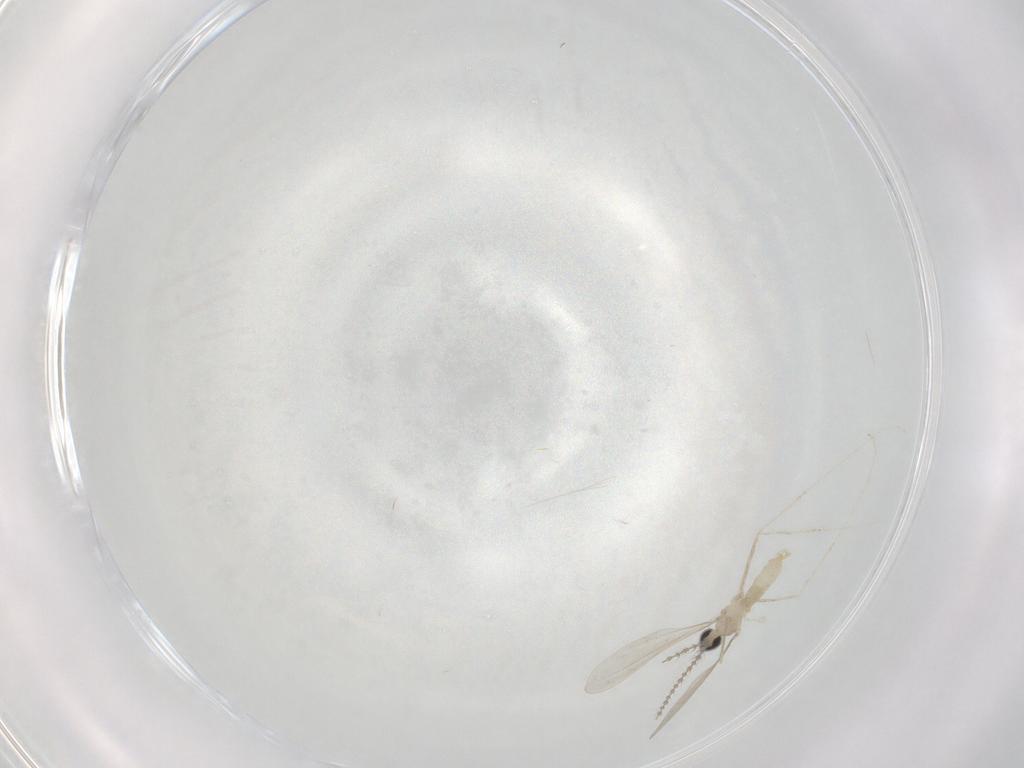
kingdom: Animalia
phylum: Arthropoda
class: Insecta
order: Diptera
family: Cecidomyiidae
